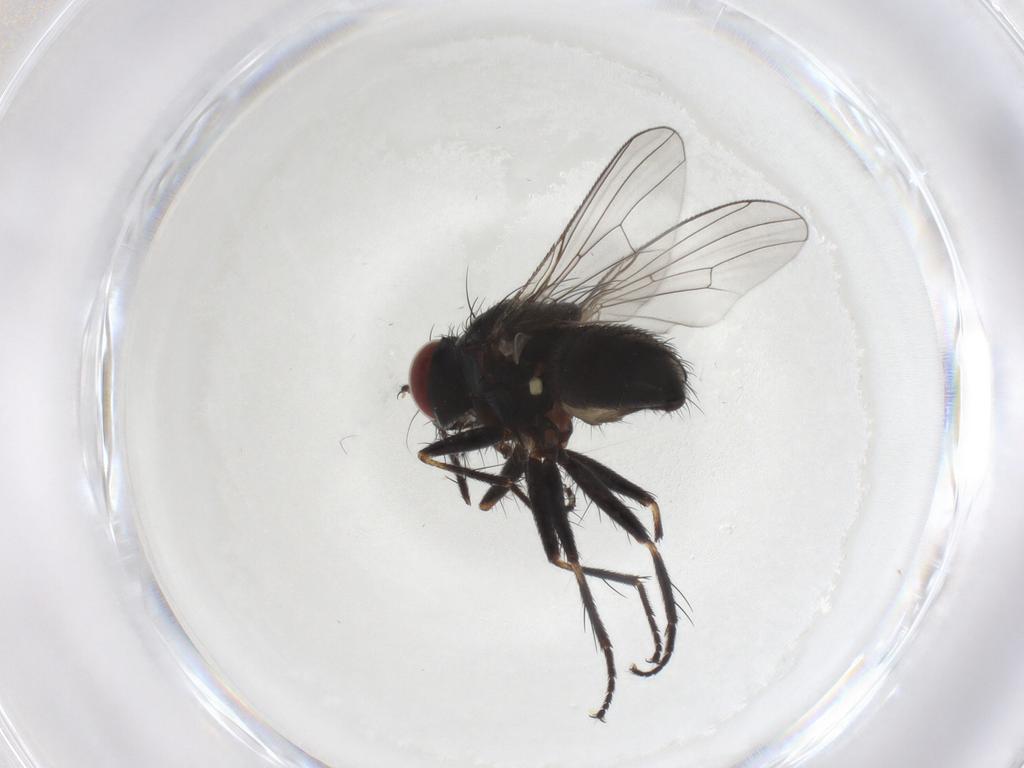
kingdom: Animalia
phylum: Arthropoda
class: Insecta
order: Diptera
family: Muscidae
